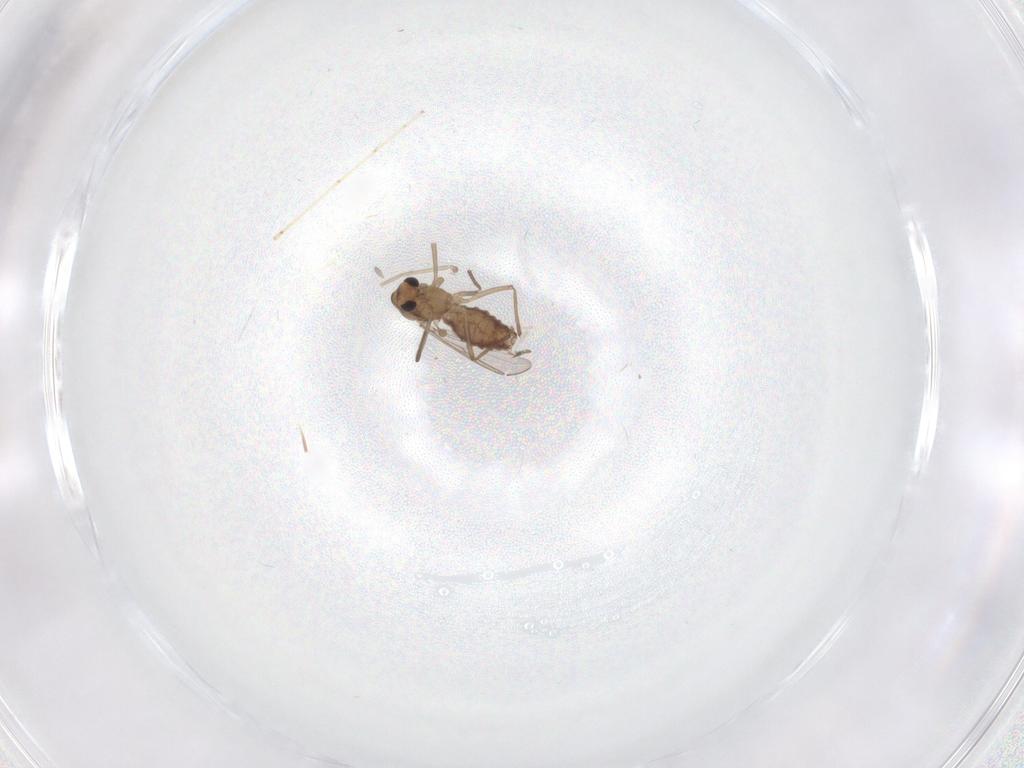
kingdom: Animalia
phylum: Arthropoda
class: Insecta
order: Diptera
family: Chironomidae
